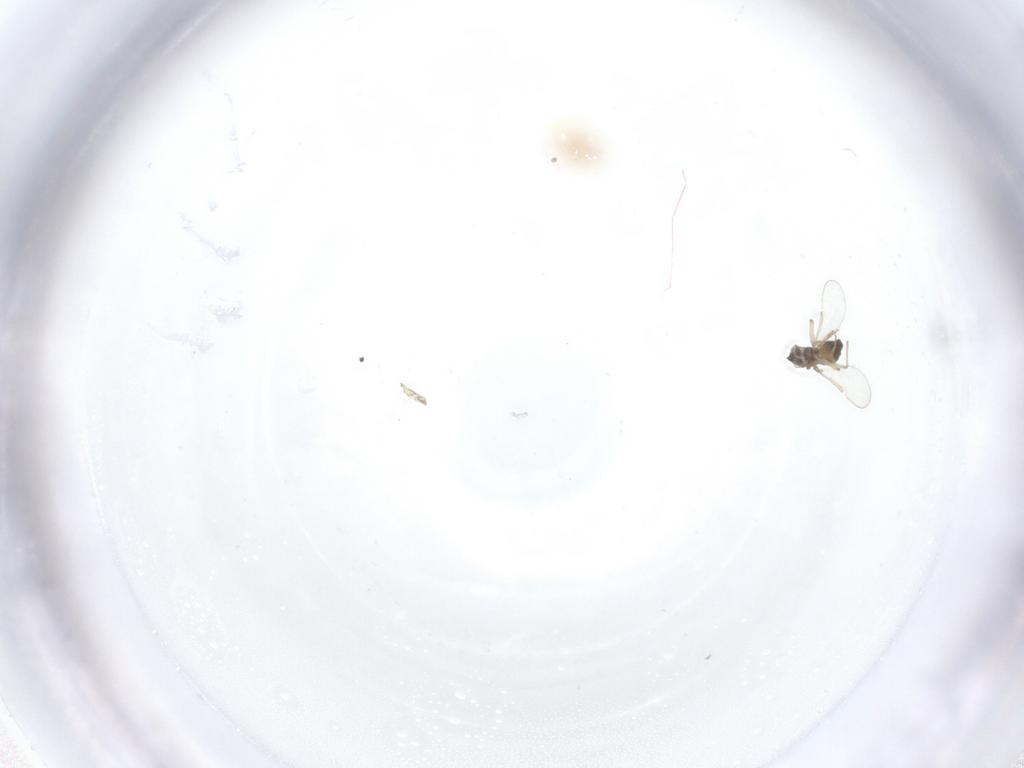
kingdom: Animalia
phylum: Arthropoda
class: Insecta
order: Diptera
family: Chironomidae
